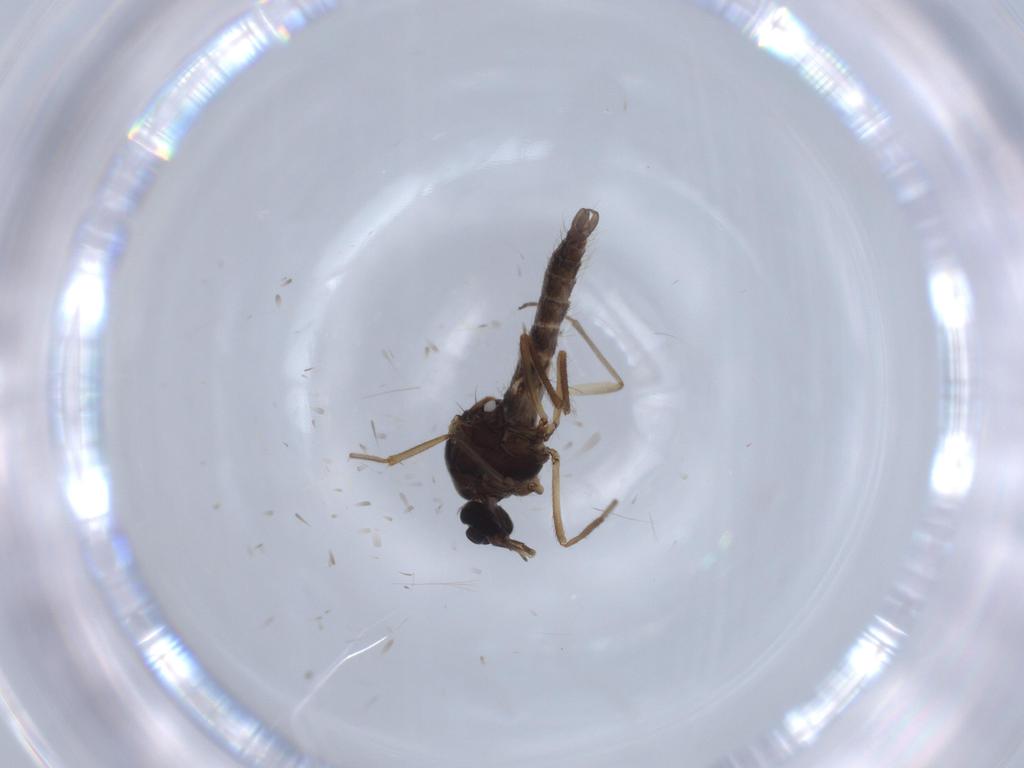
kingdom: Animalia
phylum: Arthropoda
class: Insecta
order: Diptera
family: Ceratopogonidae
